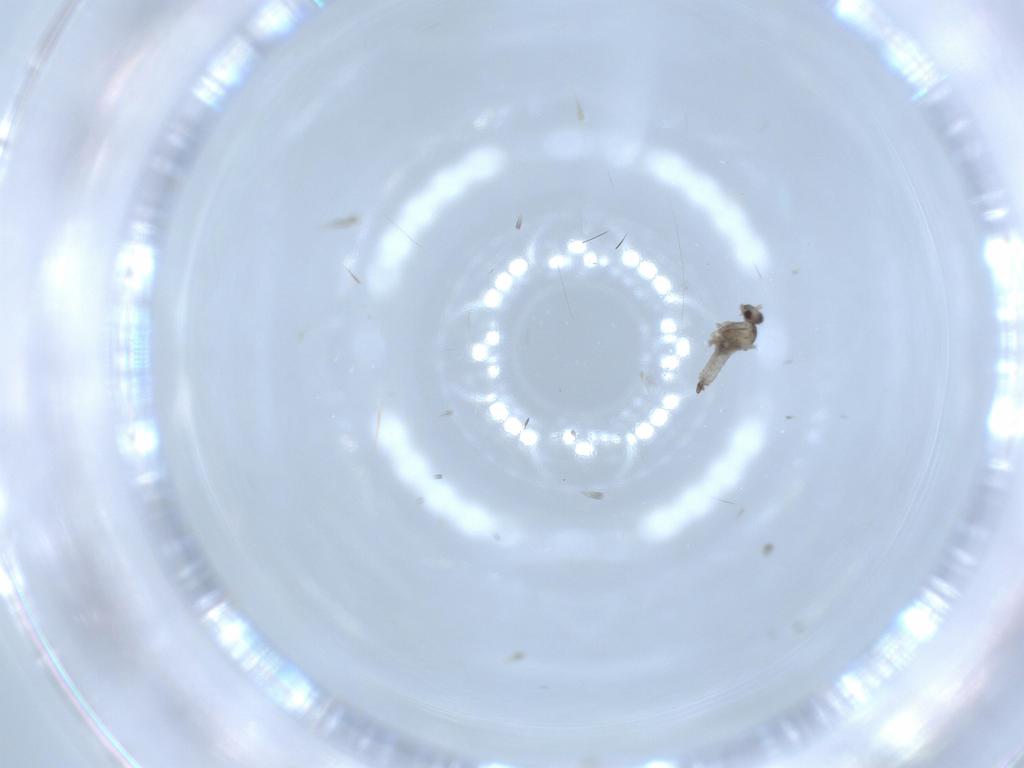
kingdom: Animalia
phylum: Arthropoda
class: Insecta
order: Diptera
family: Cecidomyiidae
